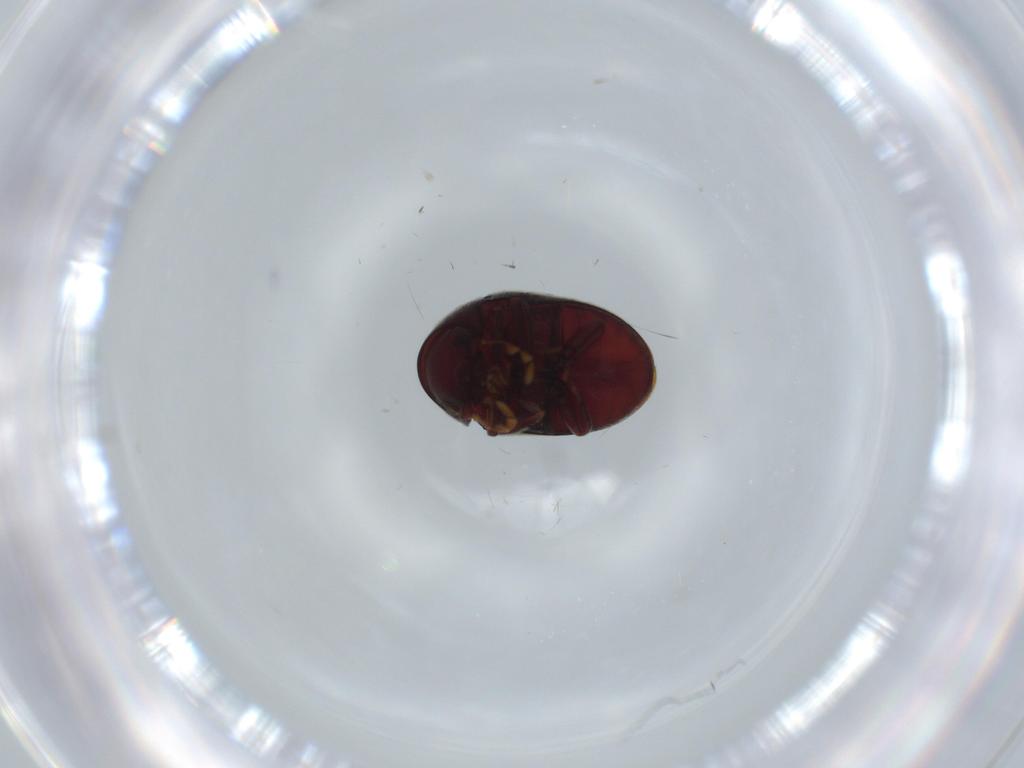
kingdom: Animalia
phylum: Arthropoda
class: Insecta
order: Coleoptera
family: Ptinidae
